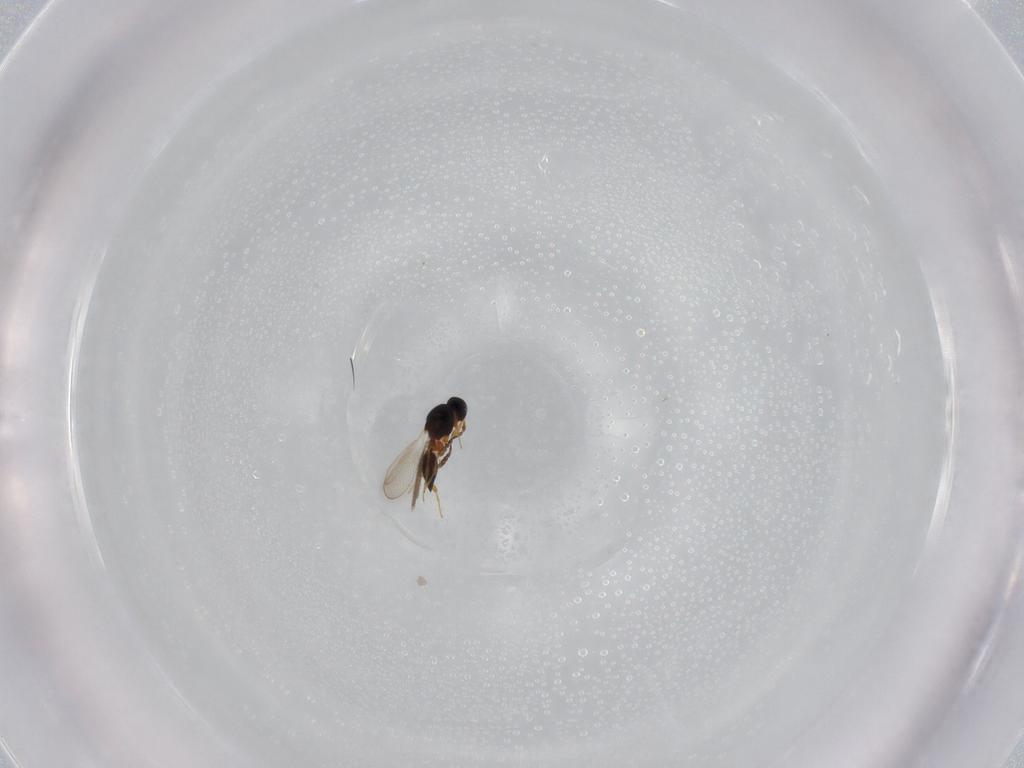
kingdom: Animalia
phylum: Arthropoda
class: Insecta
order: Hymenoptera
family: Platygastridae
